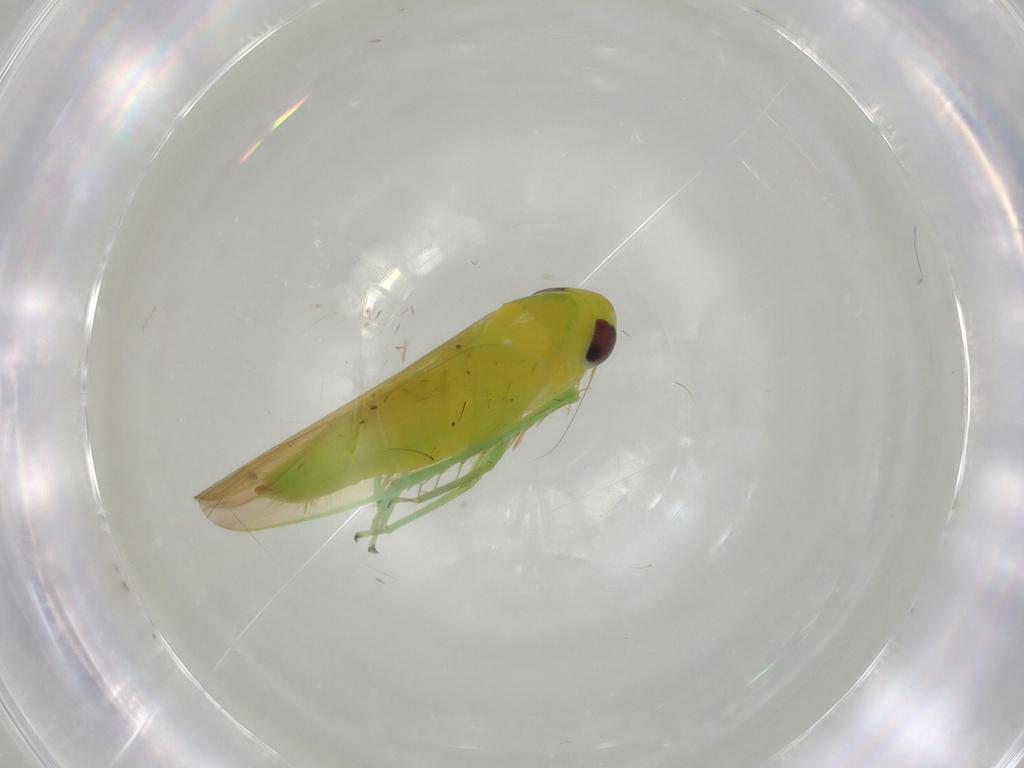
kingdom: Animalia
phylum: Arthropoda
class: Insecta
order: Hemiptera
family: Cicadellidae
